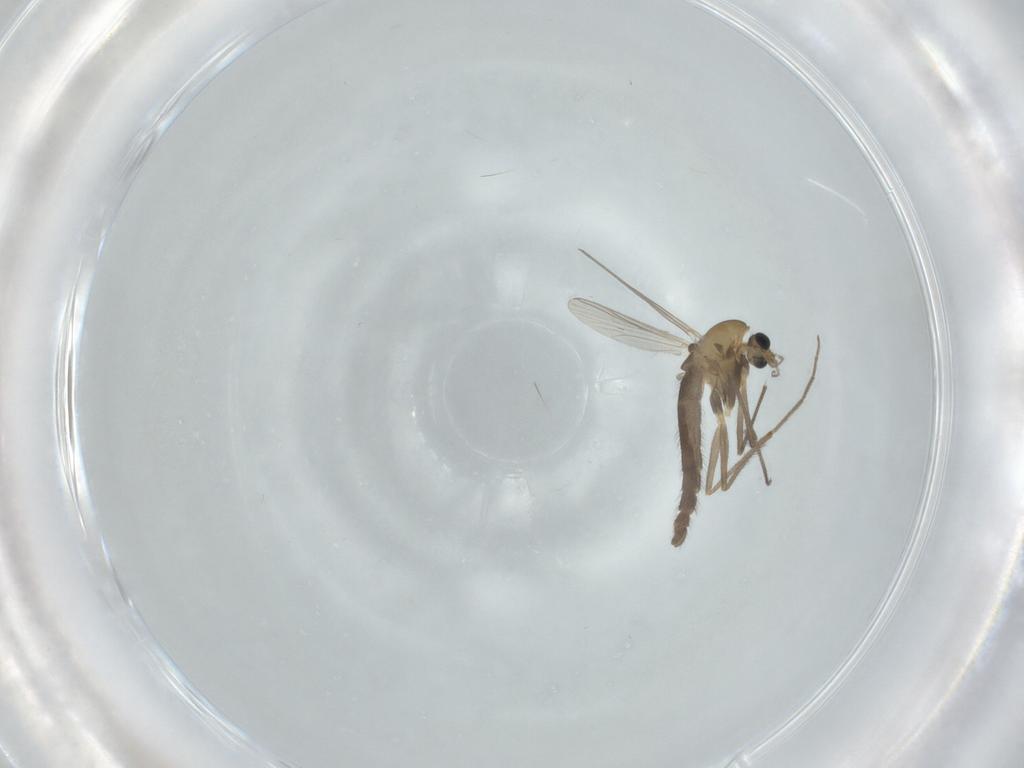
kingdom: Animalia
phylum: Arthropoda
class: Insecta
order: Diptera
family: Chironomidae
